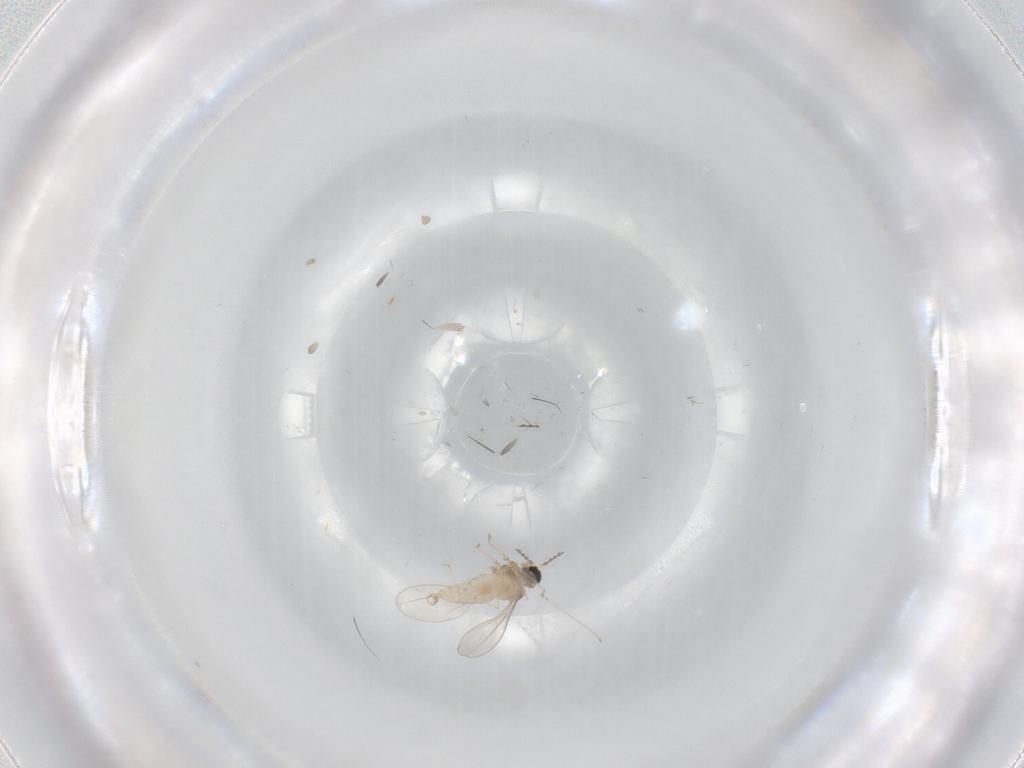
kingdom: Animalia
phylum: Arthropoda
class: Insecta
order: Diptera
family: Cecidomyiidae
